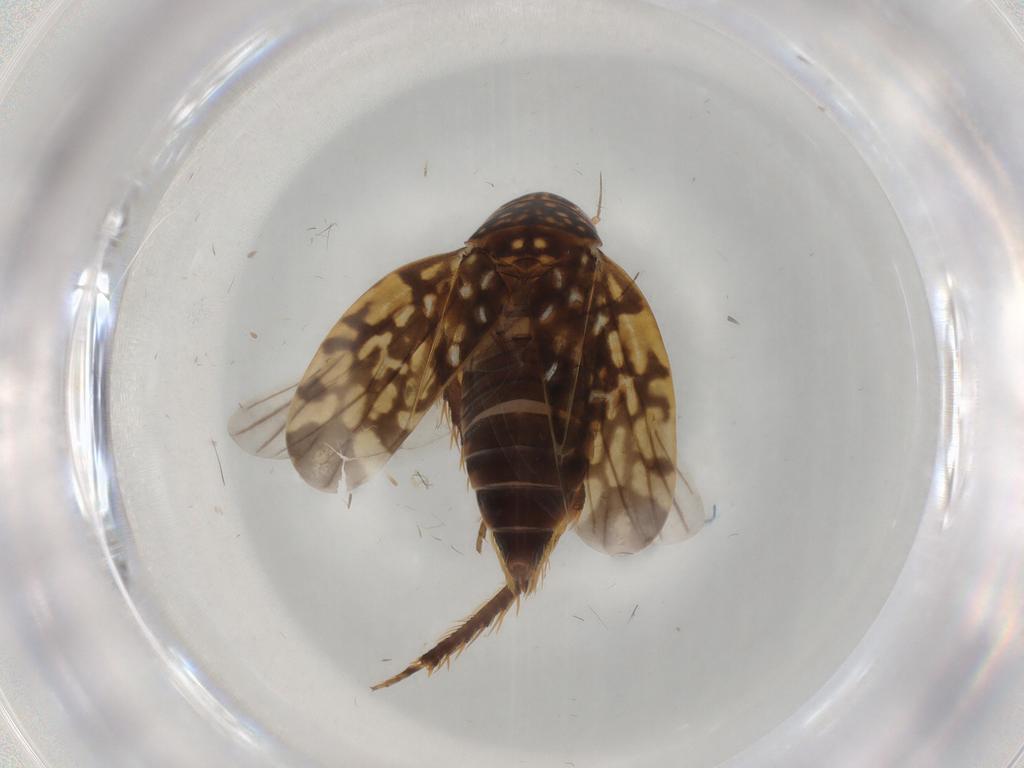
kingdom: Animalia
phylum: Arthropoda
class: Insecta
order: Hemiptera
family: Cicadellidae
